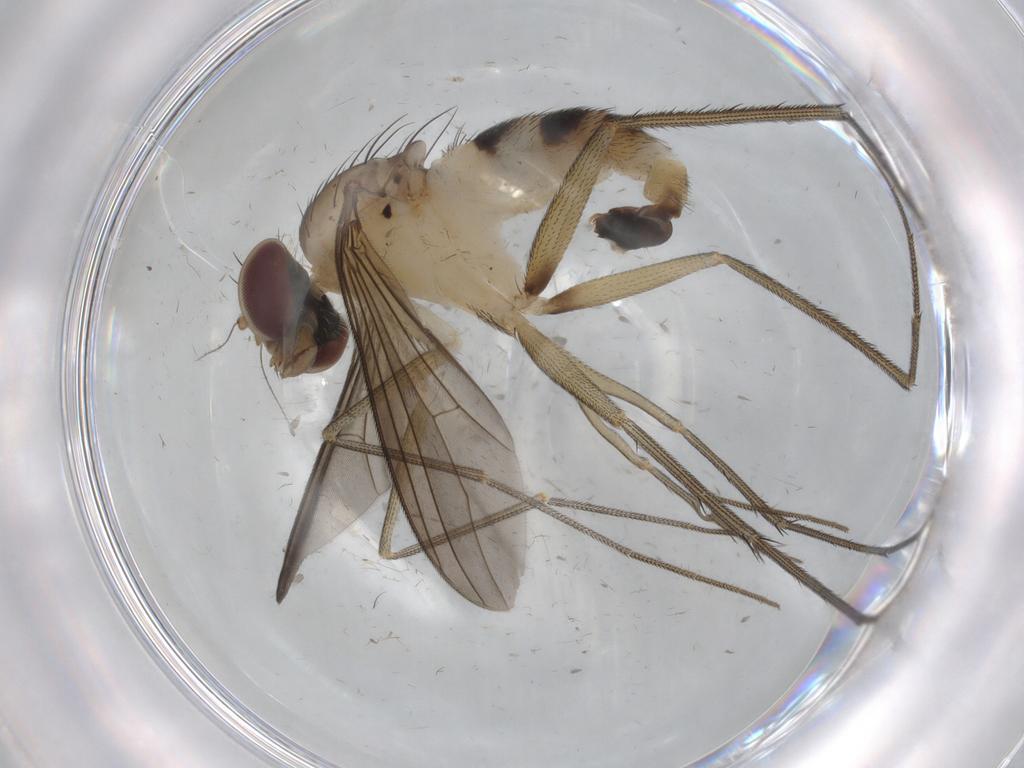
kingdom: Animalia
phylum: Arthropoda
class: Insecta
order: Diptera
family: Dolichopodidae
